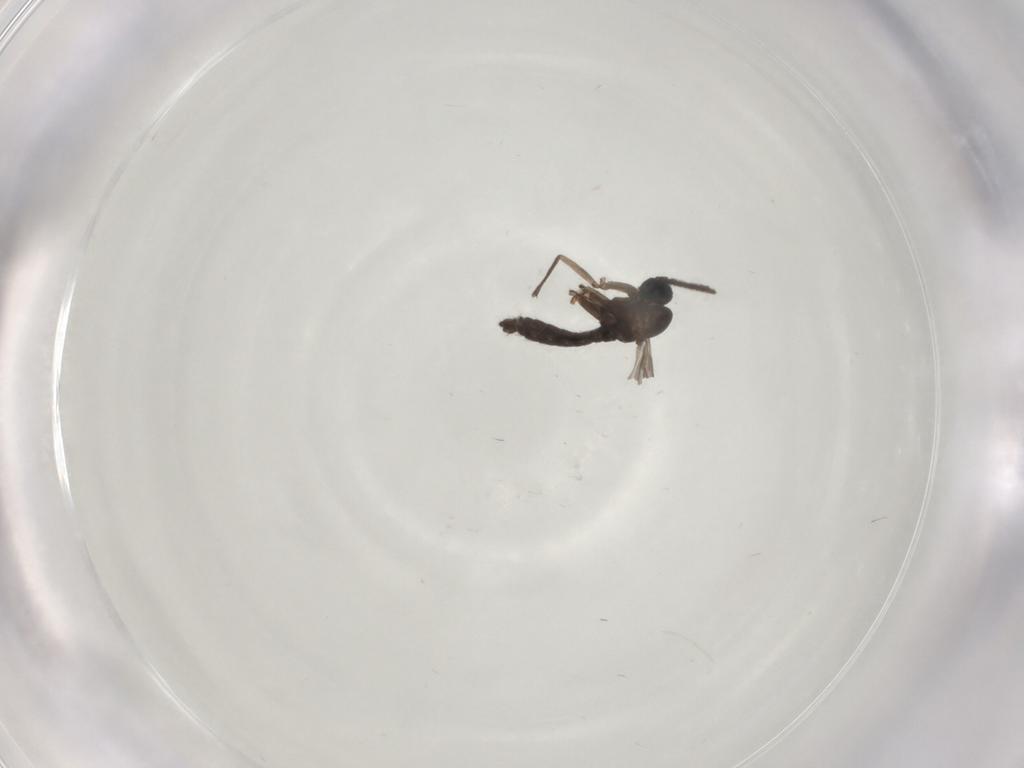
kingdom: Animalia
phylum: Arthropoda
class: Insecta
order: Diptera
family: Sciaridae
